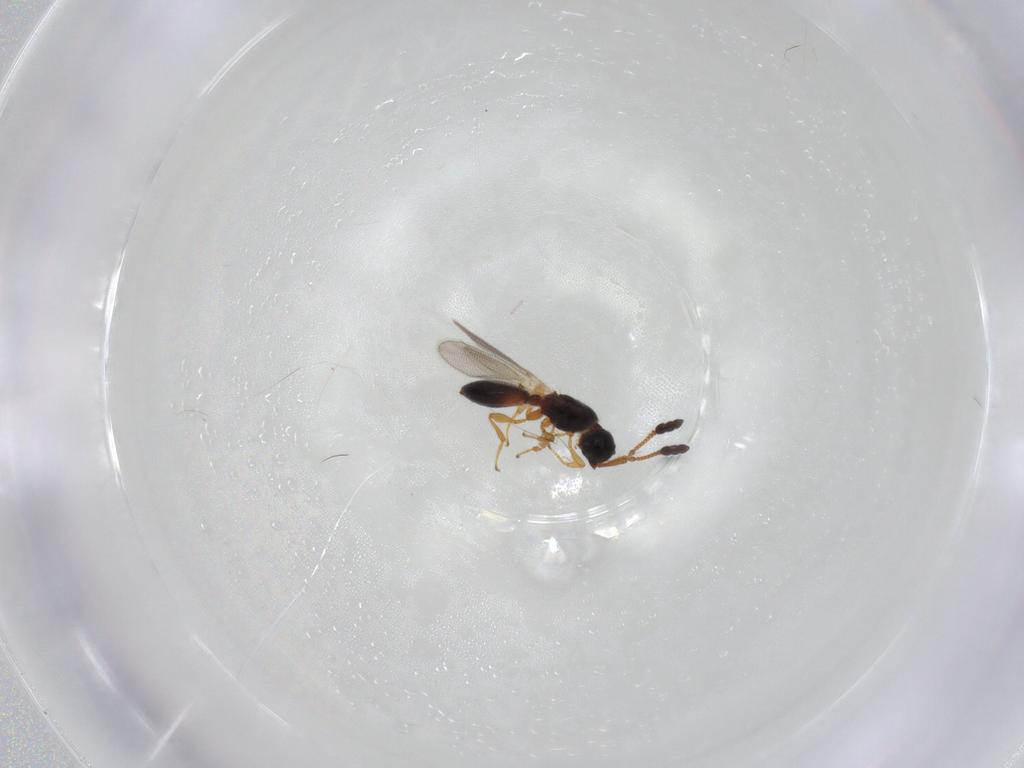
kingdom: Animalia
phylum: Arthropoda
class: Insecta
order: Hymenoptera
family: Diapriidae
